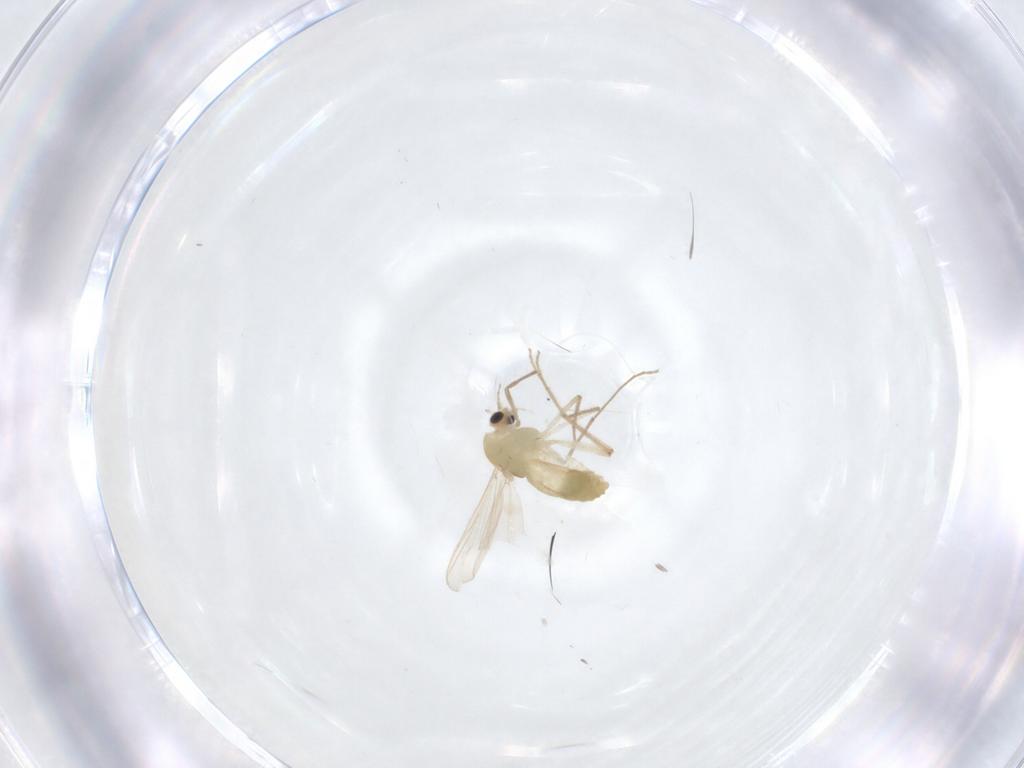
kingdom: Animalia
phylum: Arthropoda
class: Insecta
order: Diptera
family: Chironomidae
